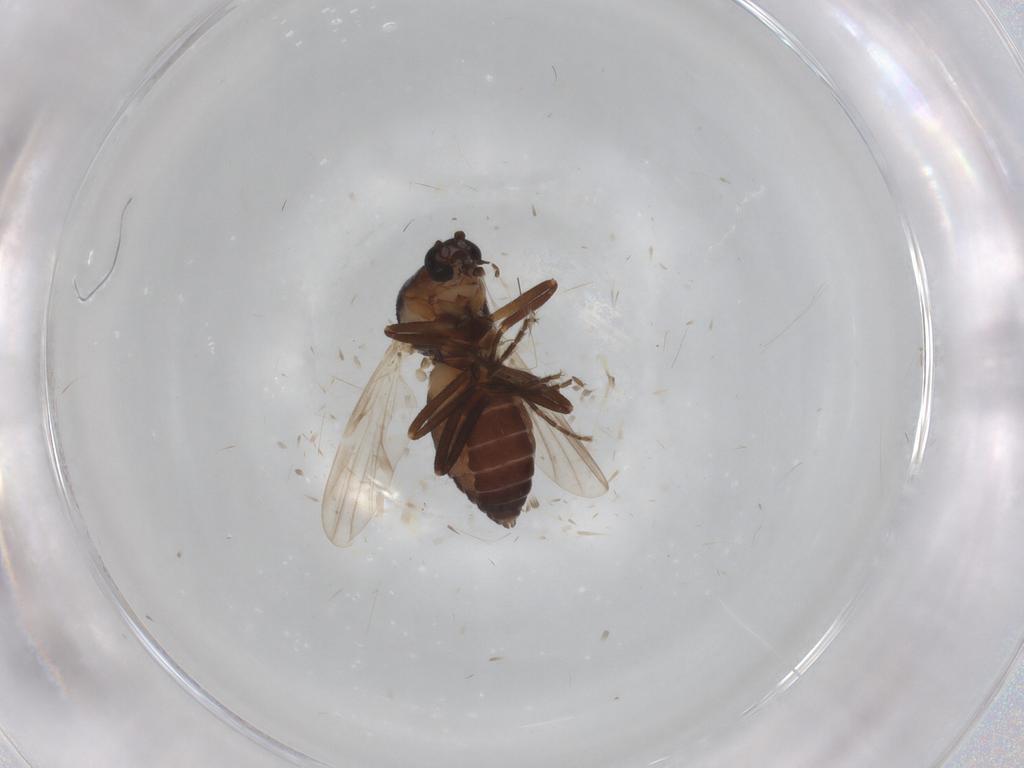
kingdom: Animalia
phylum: Arthropoda
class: Insecta
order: Diptera
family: Ceratopogonidae
